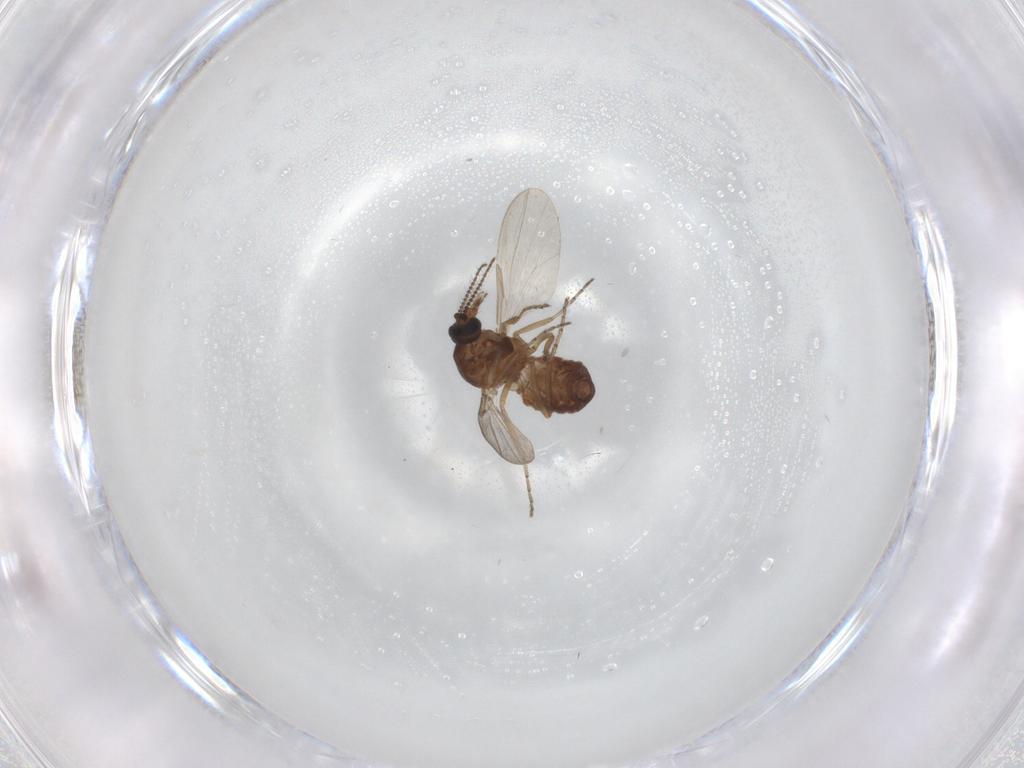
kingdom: Animalia
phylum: Arthropoda
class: Insecta
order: Diptera
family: Ceratopogonidae
